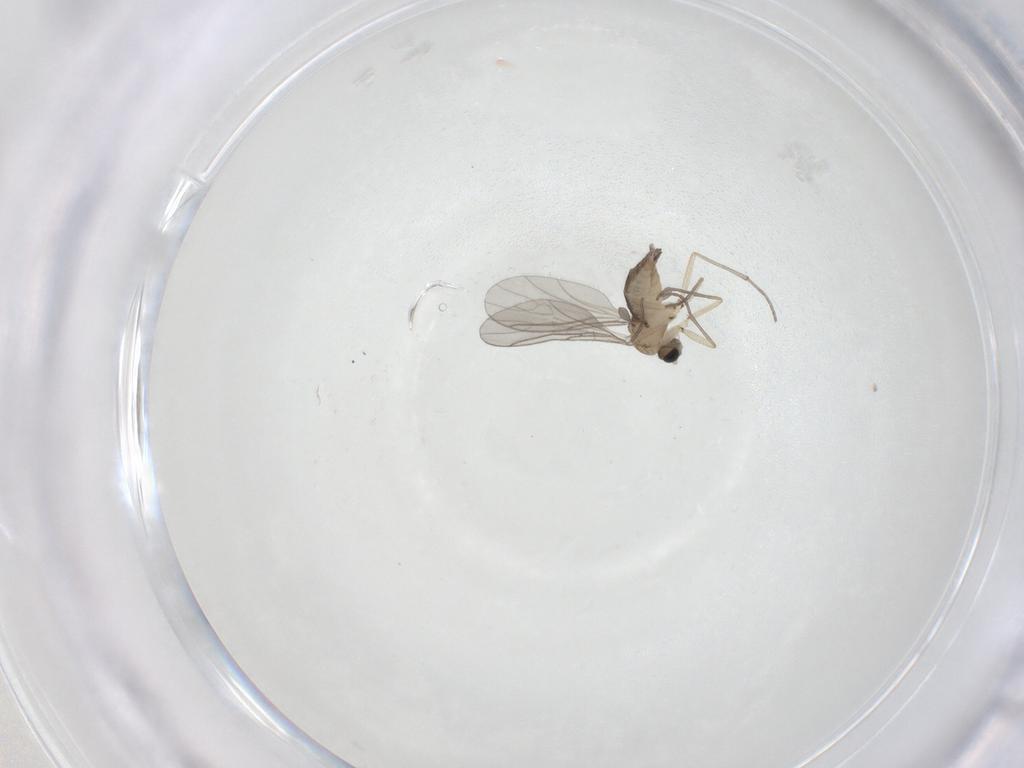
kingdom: Animalia
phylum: Arthropoda
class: Insecta
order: Diptera
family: Sciaridae
